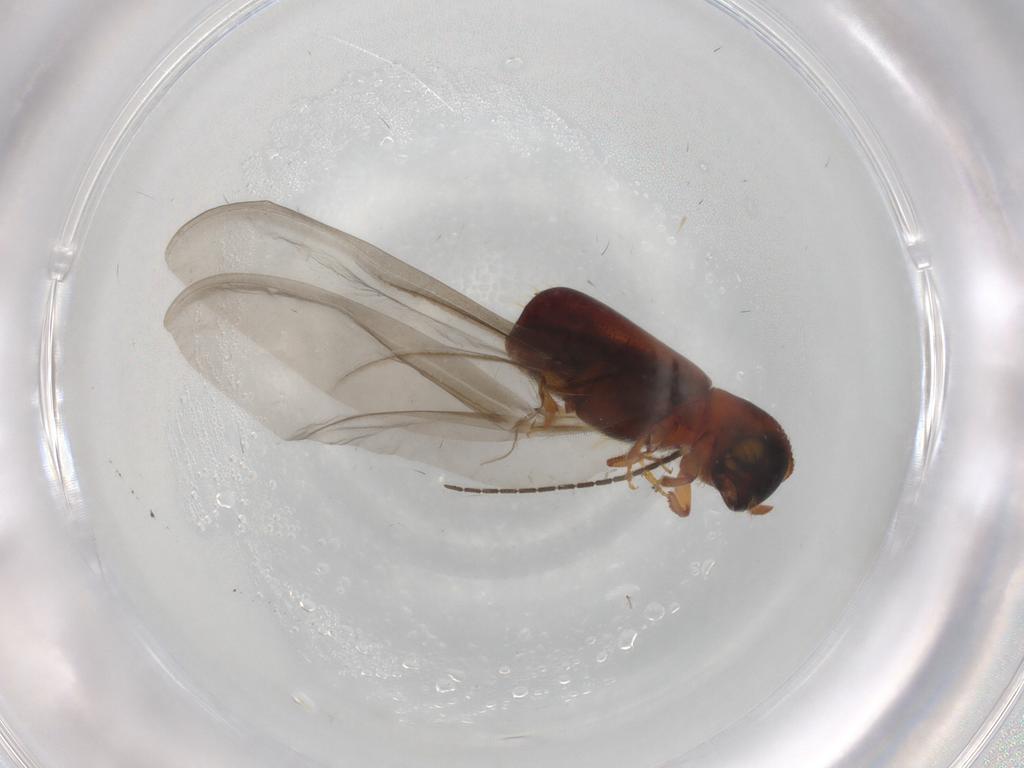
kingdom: Animalia
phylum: Arthropoda
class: Insecta
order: Coleoptera
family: Curculionidae
